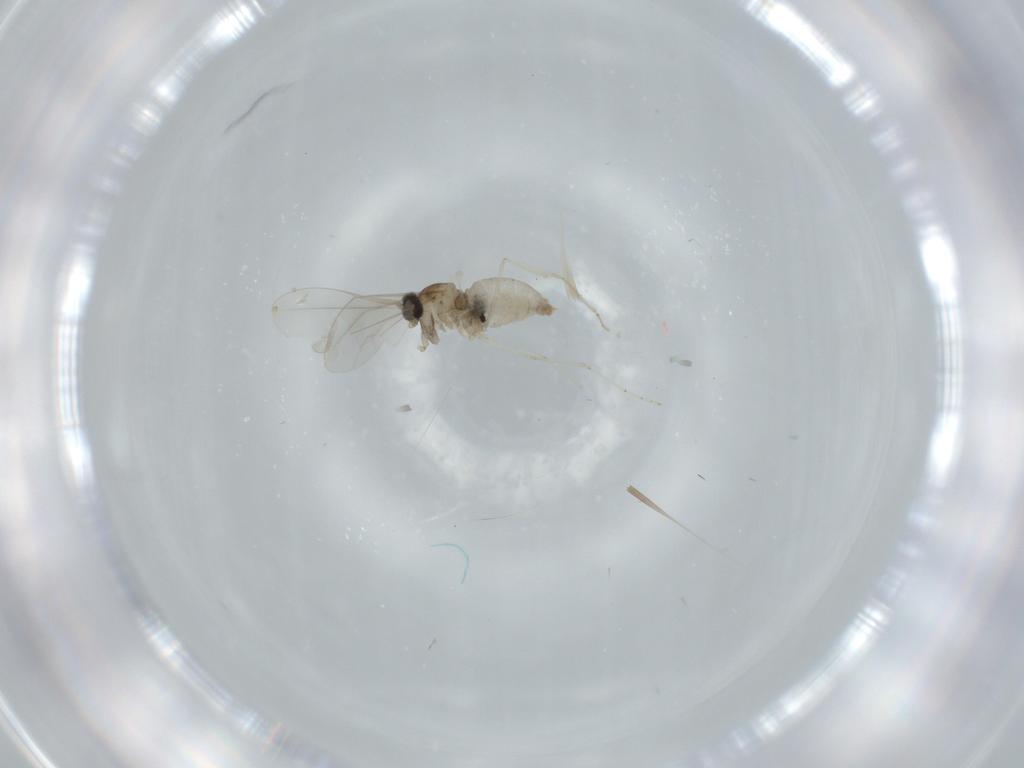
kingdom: Animalia
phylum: Arthropoda
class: Insecta
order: Diptera
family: Cecidomyiidae
